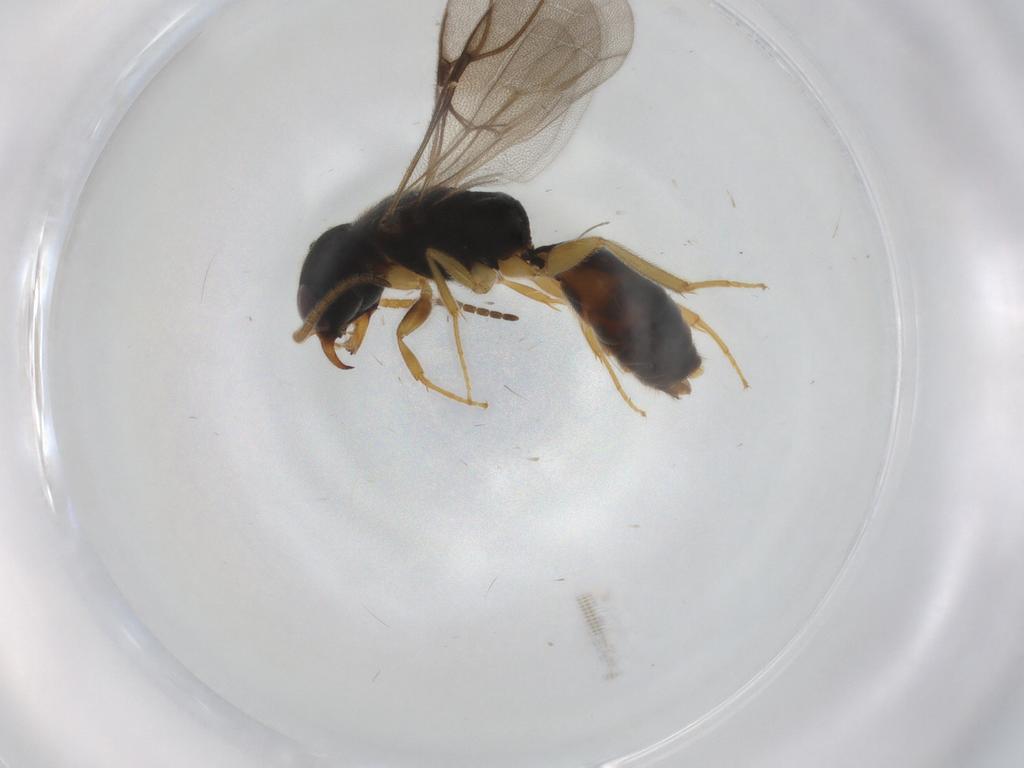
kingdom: Animalia
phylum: Arthropoda
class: Insecta
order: Hymenoptera
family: Diparidae
